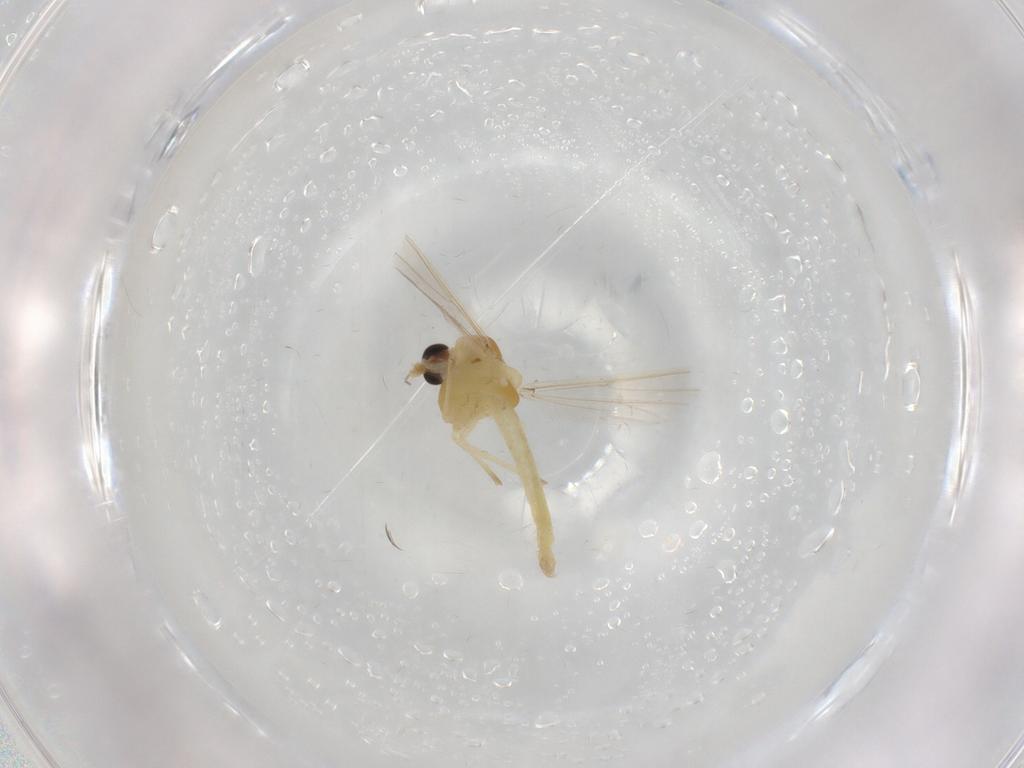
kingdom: Animalia
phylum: Arthropoda
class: Insecta
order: Diptera
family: Chironomidae
